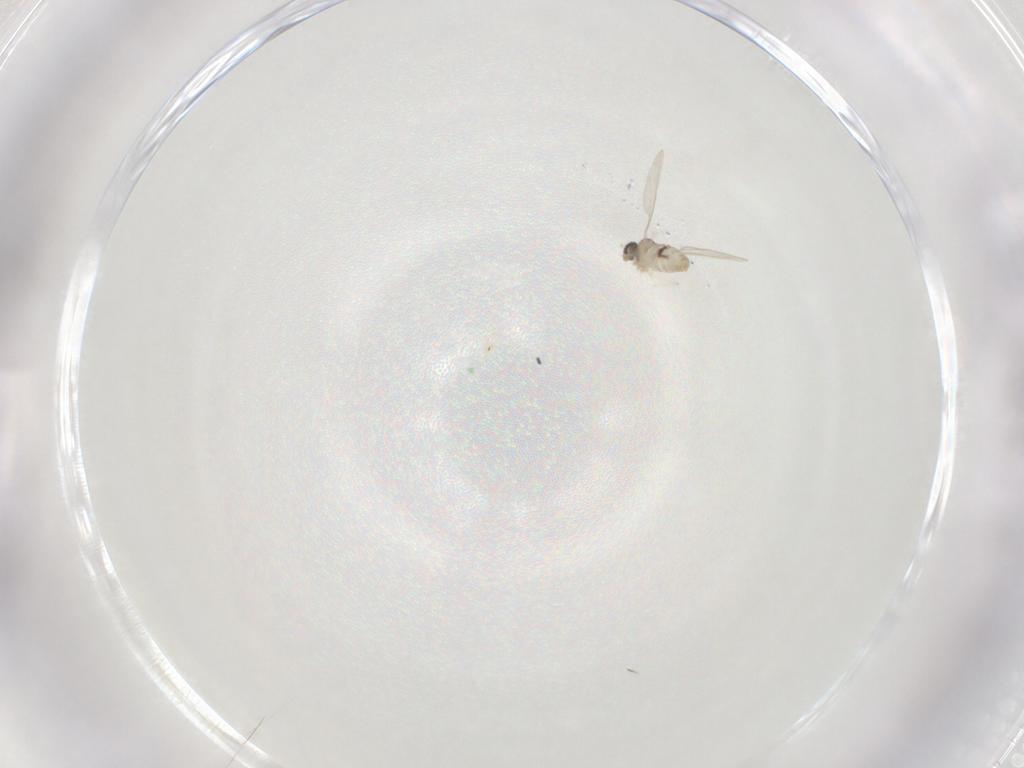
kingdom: Animalia
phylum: Arthropoda
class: Insecta
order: Diptera
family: Cecidomyiidae
